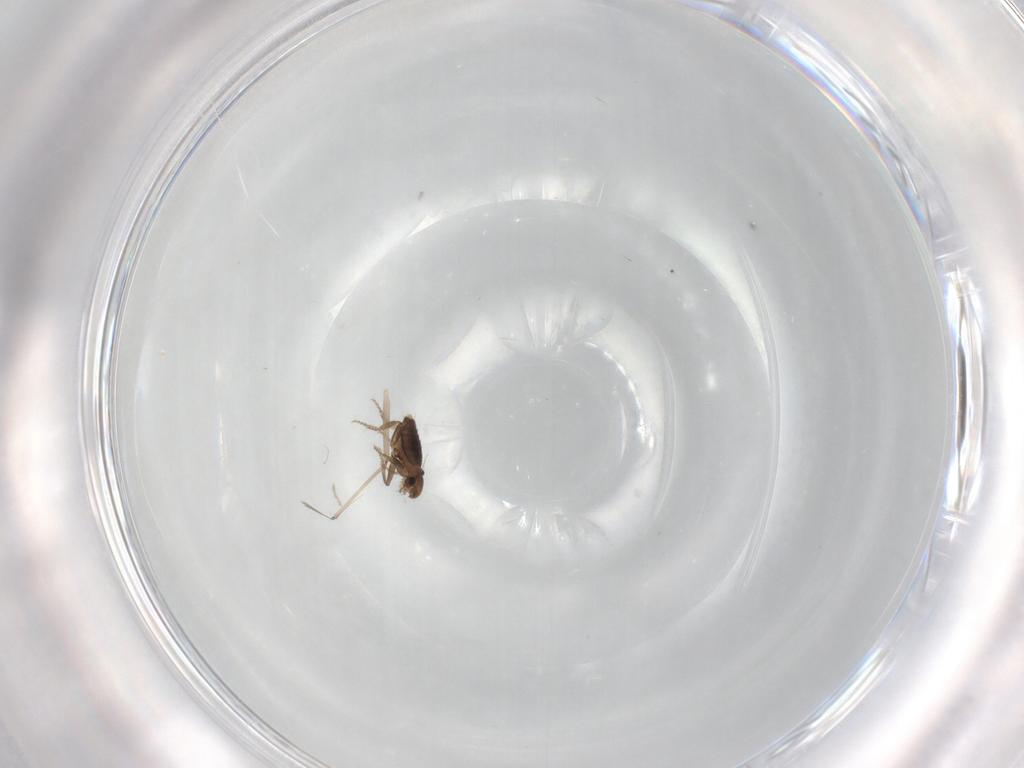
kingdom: Animalia
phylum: Arthropoda
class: Insecta
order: Diptera
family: Phoridae
